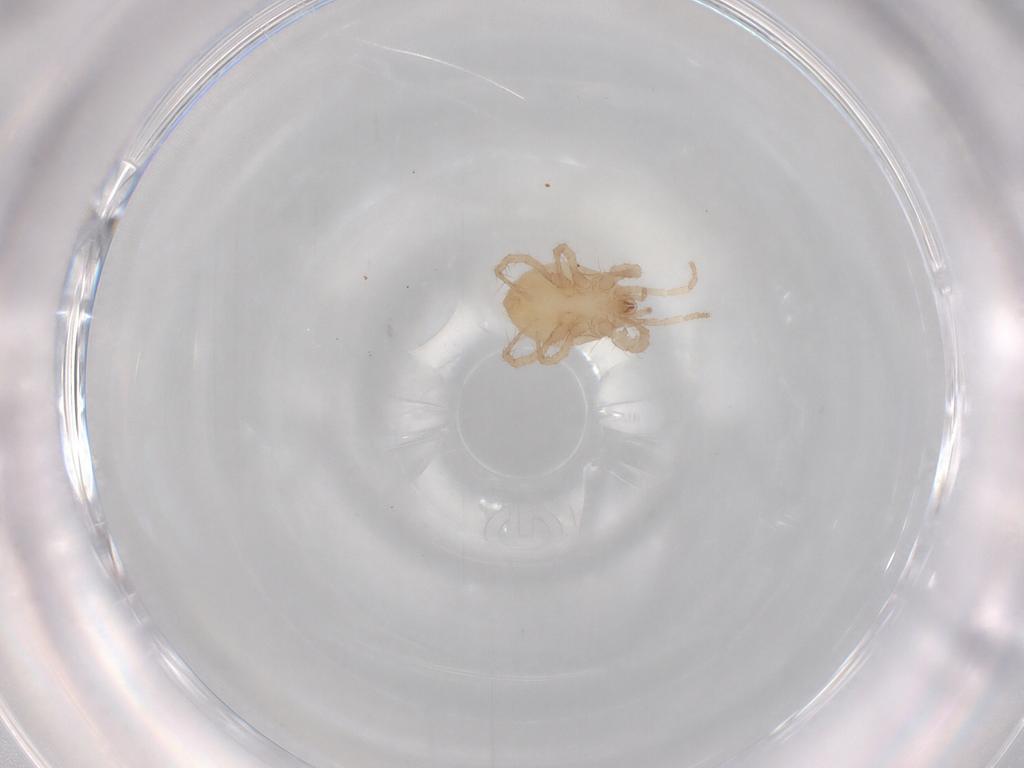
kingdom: Animalia
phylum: Arthropoda
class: Arachnida
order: Mesostigmata
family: Parasitidae
